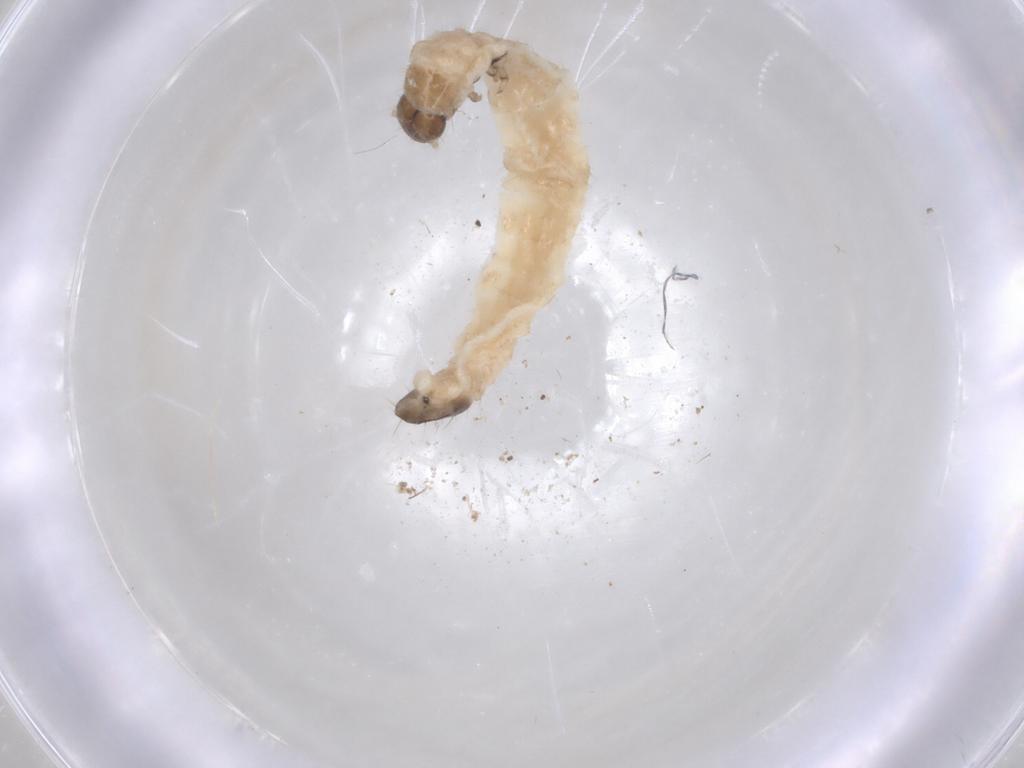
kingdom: Animalia
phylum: Arthropoda
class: Insecta
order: Coleoptera
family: Chrysomelidae
